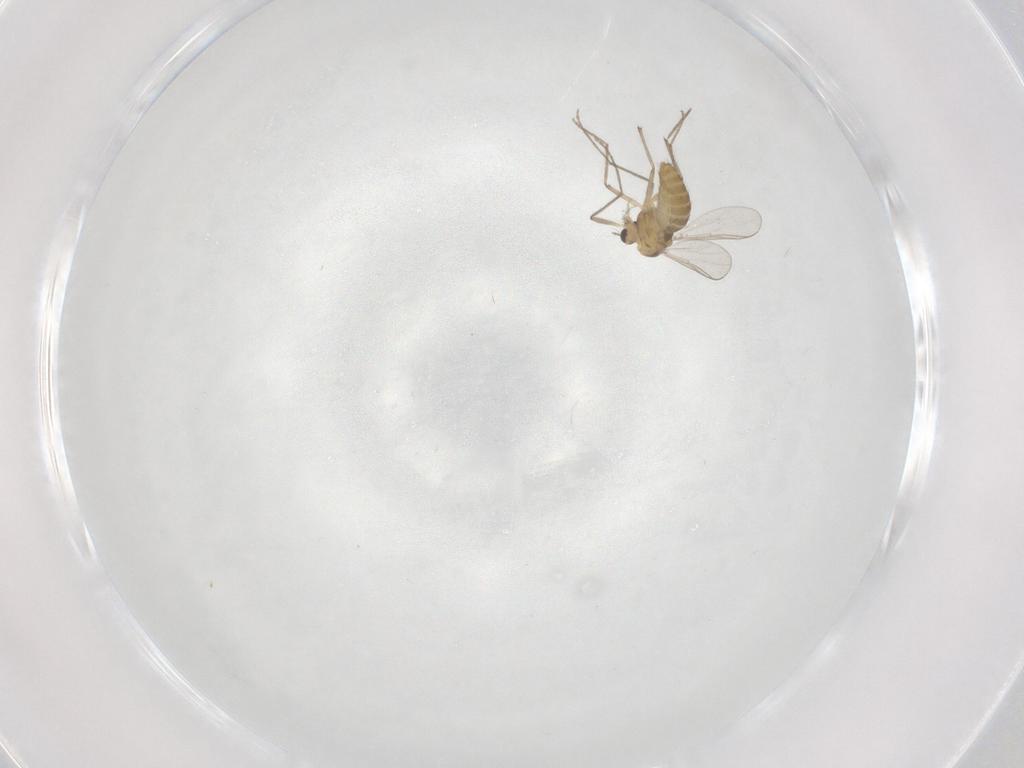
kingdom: Animalia
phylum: Arthropoda
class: Insecta
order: Diptera
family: Chironomidae
